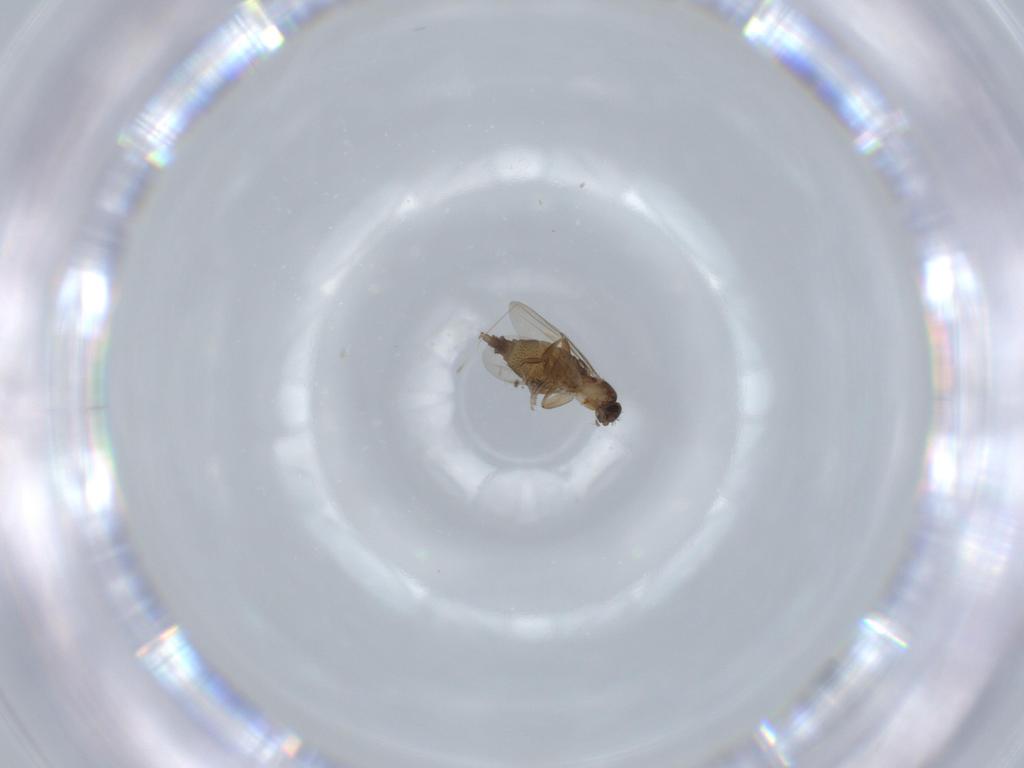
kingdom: Animalia
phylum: Arthropoda
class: Insecta
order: Diptera
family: Phoridae
